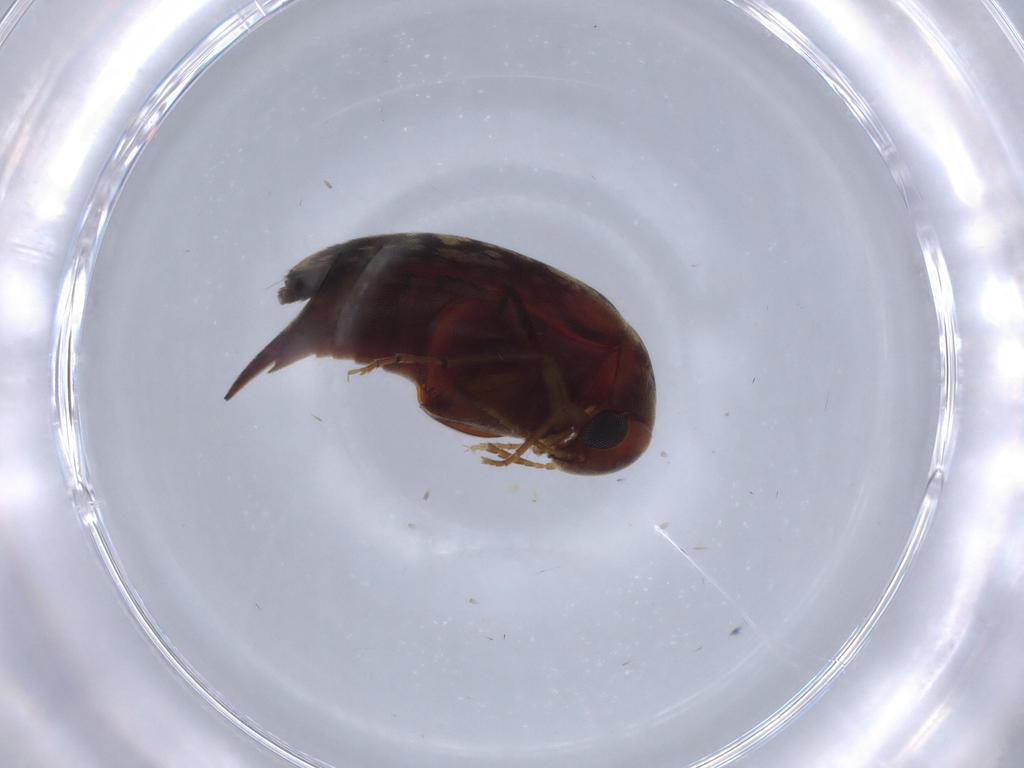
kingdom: Animalia
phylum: Arthropoda
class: Insecta
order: Coleoptera
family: Mordellidae
